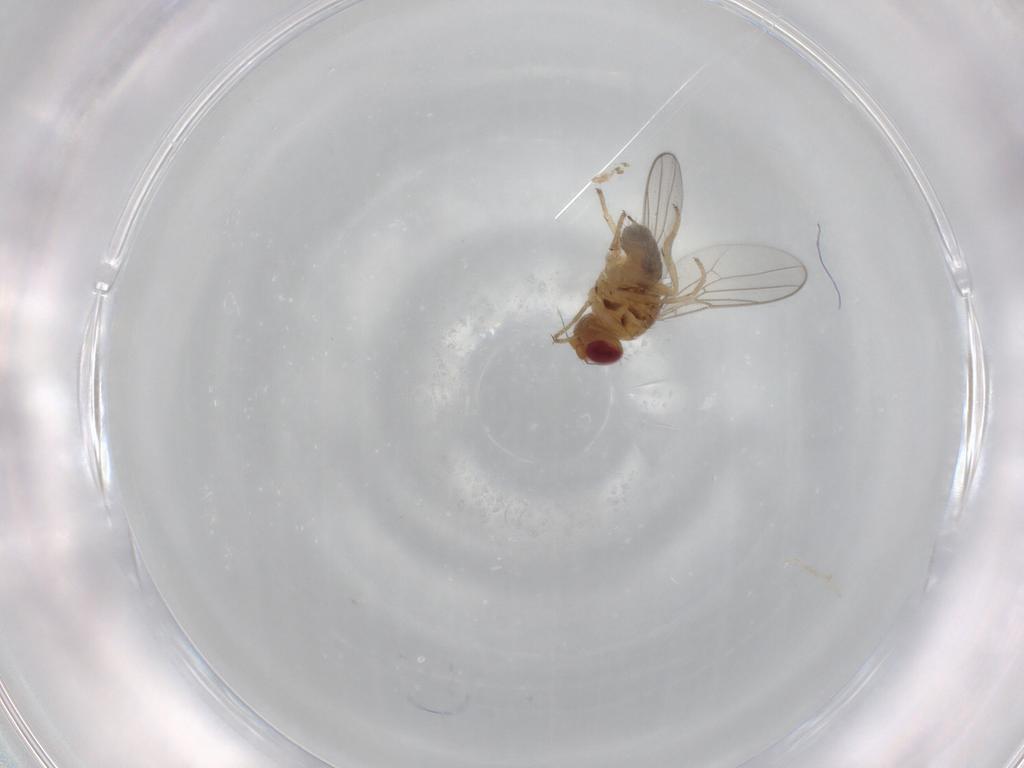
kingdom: Animalia
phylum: Arthropoda
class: Insecta
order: Diptera
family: Chloropidae
